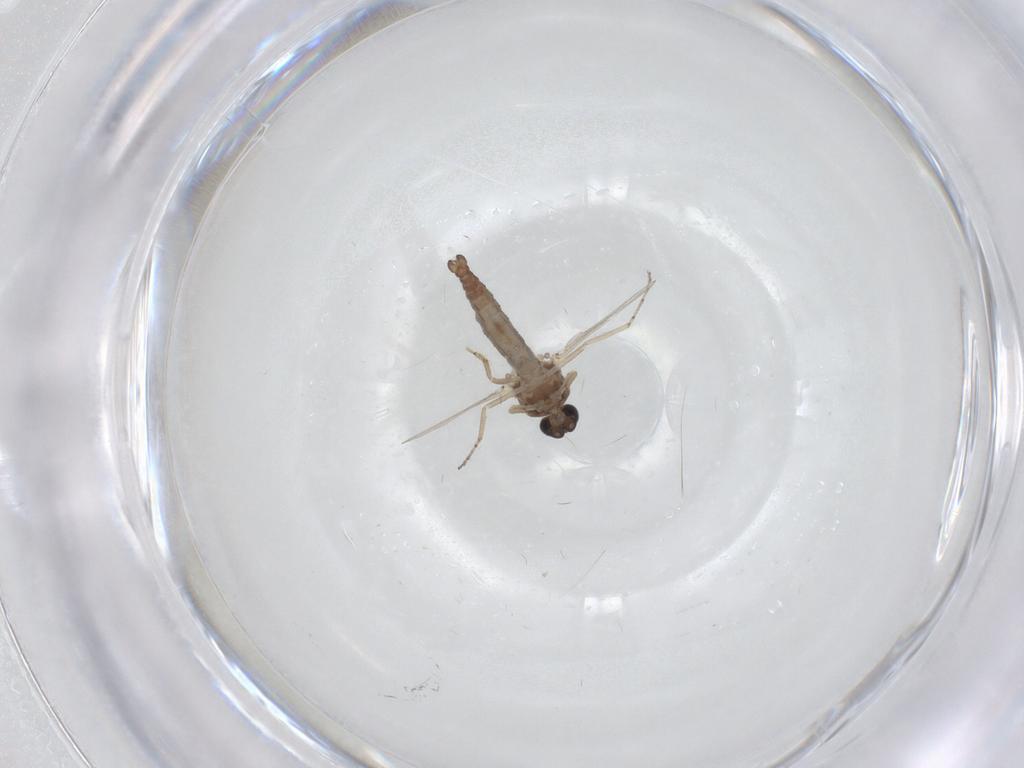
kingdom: Animalia
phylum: Arthropoda
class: Insecta
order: Diptera
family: Ceratopogonidae
